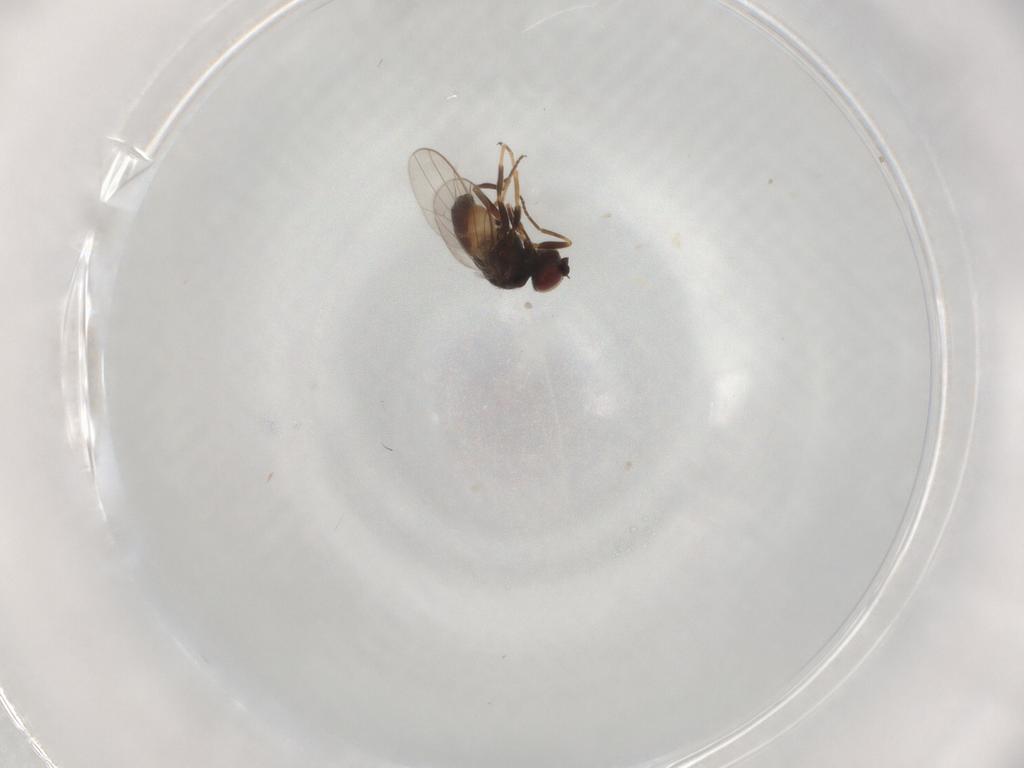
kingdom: Animalia
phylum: Arthropoda
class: Insecta
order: Diptera
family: Chloropidae
